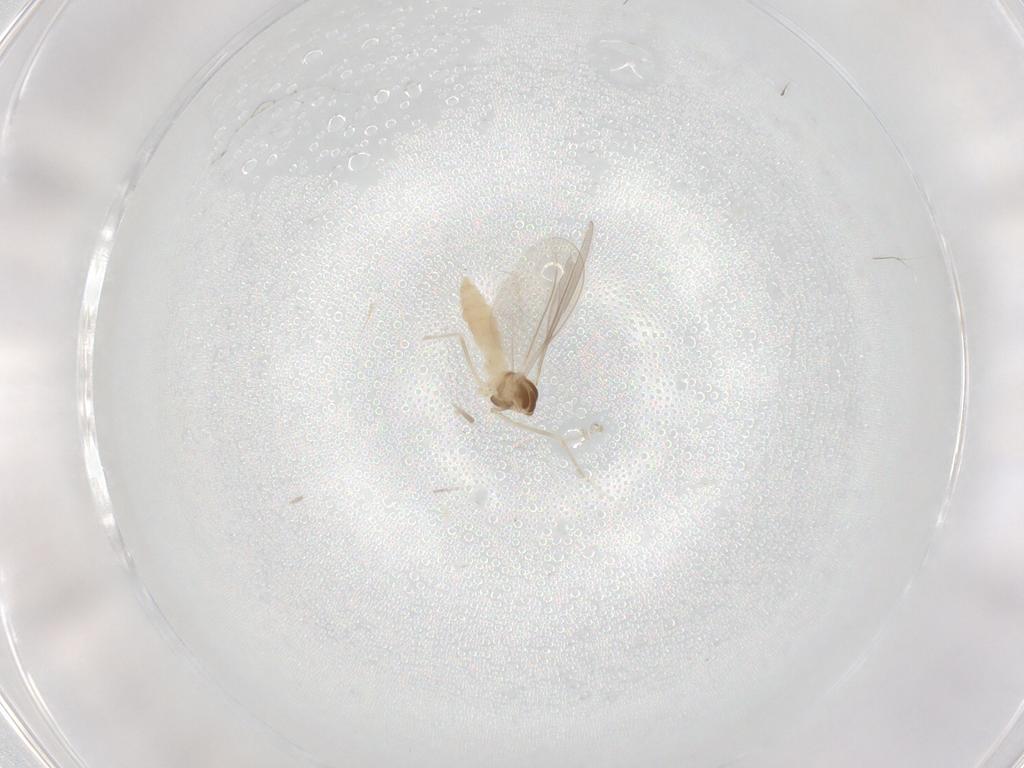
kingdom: Animalia
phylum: Arthropoda
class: Insecta
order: Diptera
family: Cecidomyiidae
